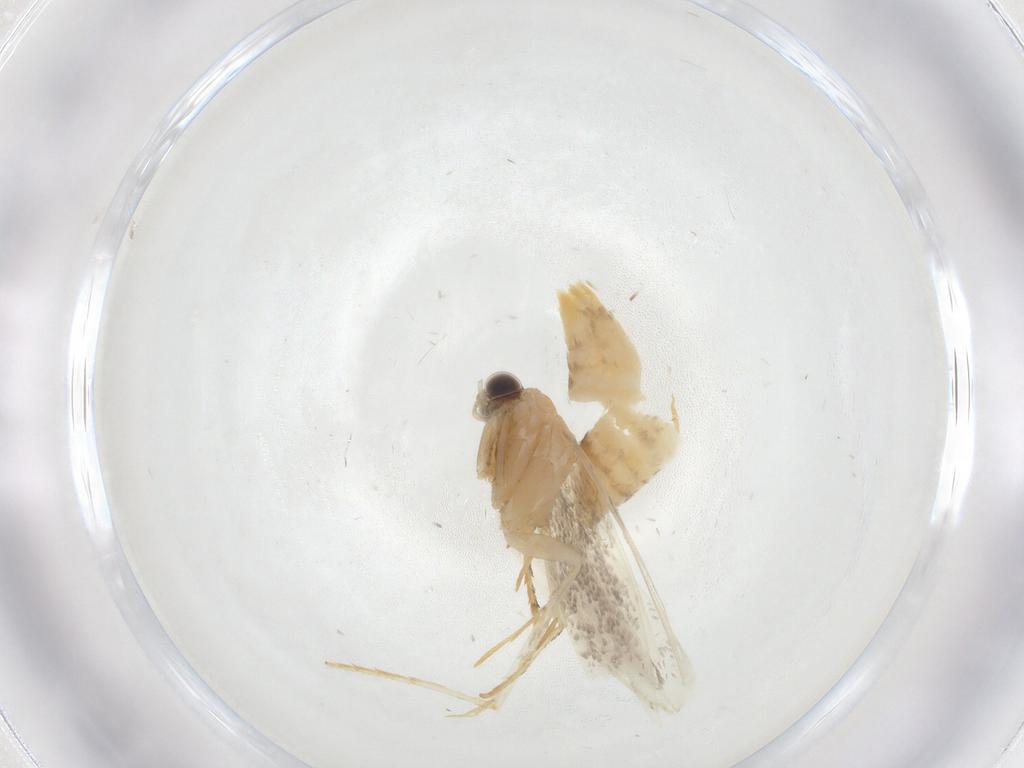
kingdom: Animalia
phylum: Arthropoda
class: Insecta
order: Lepidoptera
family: Tineidae
